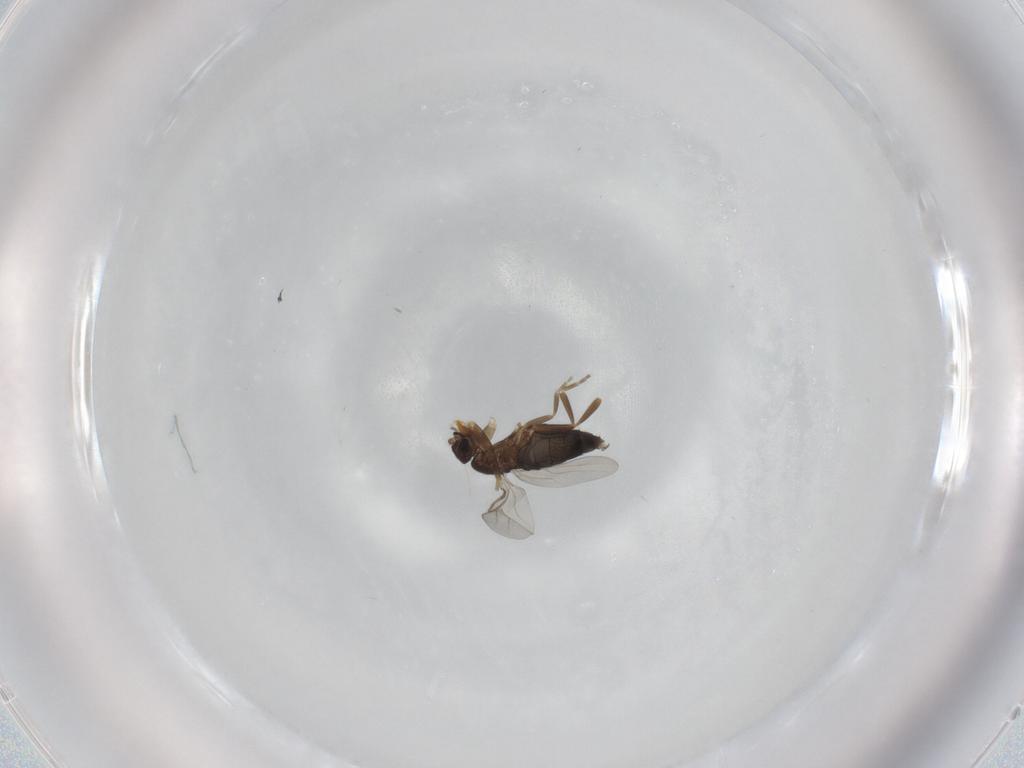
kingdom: Animalia
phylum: Arthropoda
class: Insecta
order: Diptera
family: Phoridae
